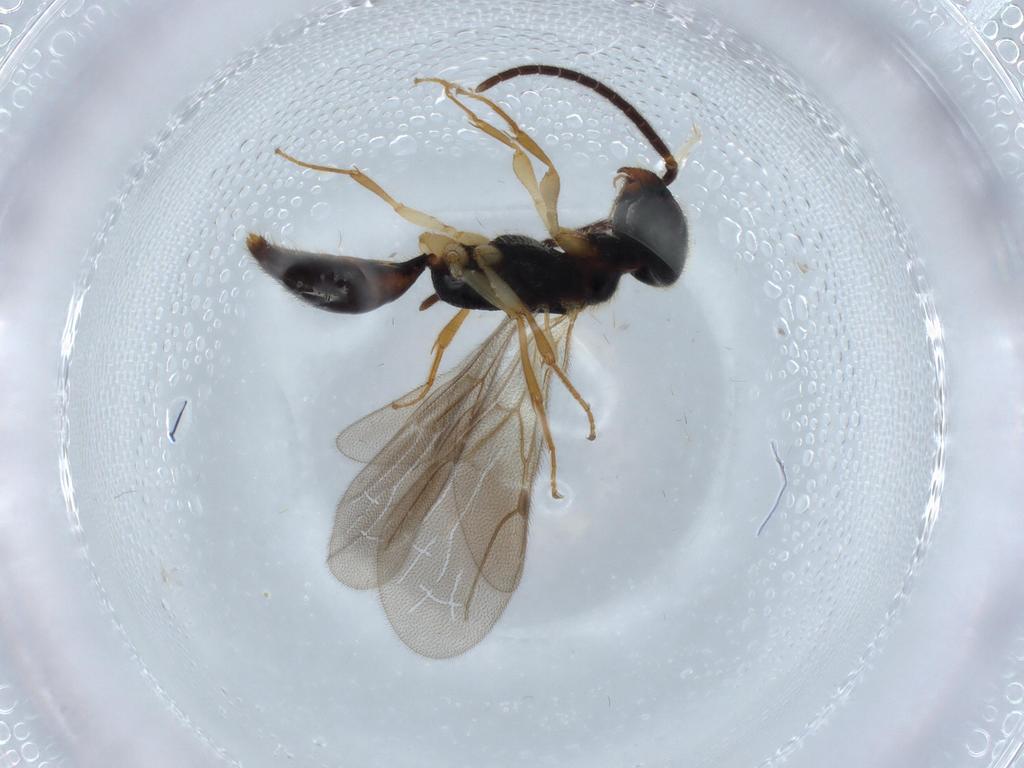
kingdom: Animalia
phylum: Arthropoda
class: Insecta
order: Hymenoptera
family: Bethylidae
